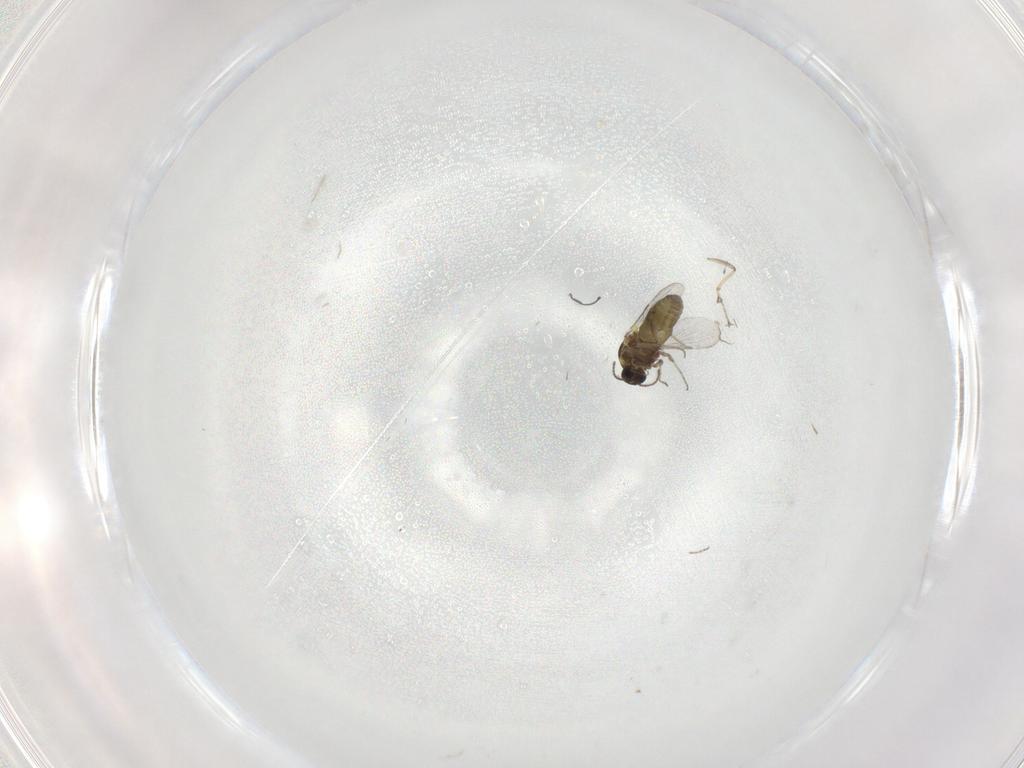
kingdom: Animalia
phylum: Arthropoda
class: Insecta
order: Diptera
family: Ceratopogonidae
